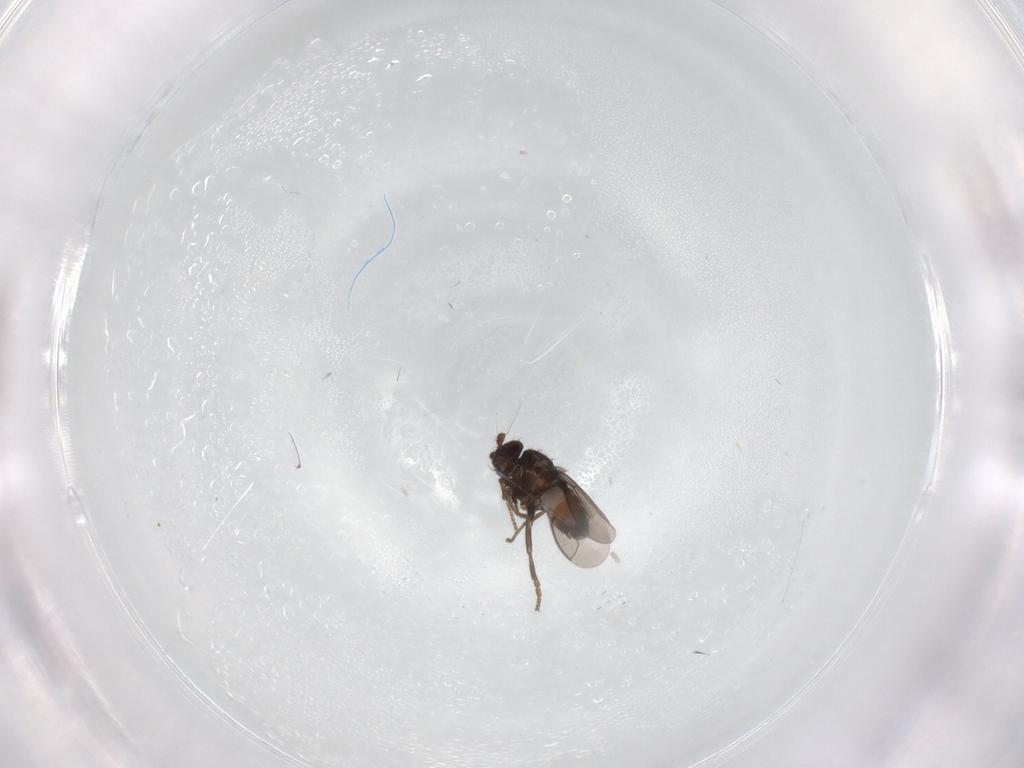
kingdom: Animalia
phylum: Arthropoda
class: Insecta
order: Diptera
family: Sphaeroceridae
